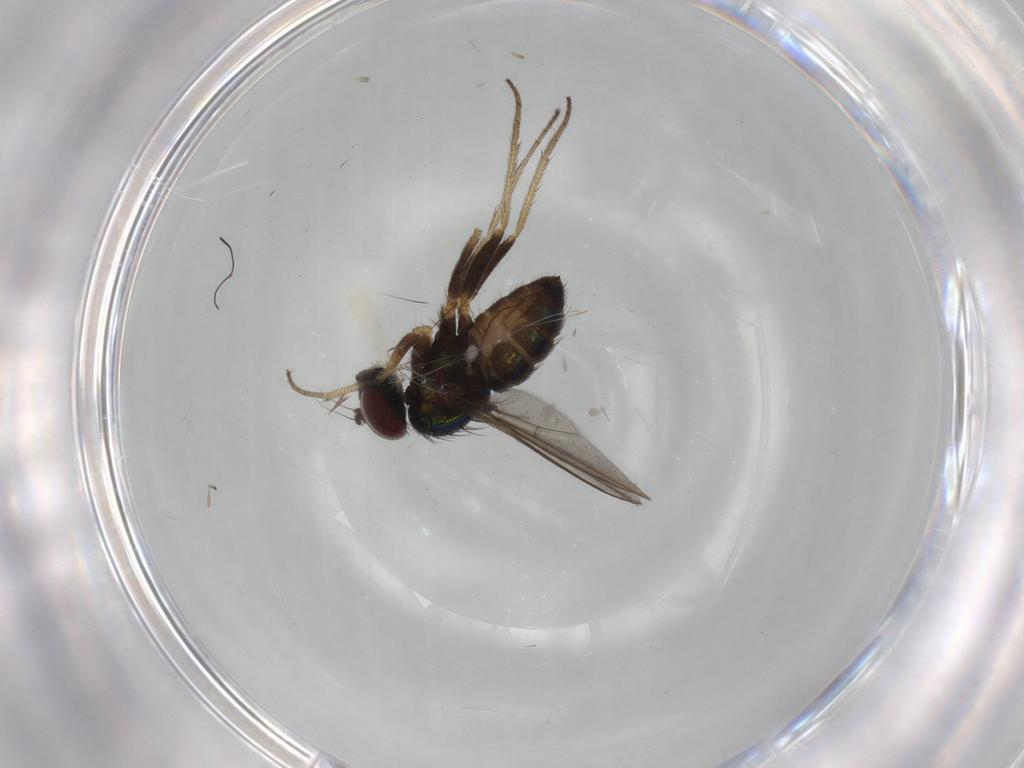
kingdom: Animalia
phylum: Arthropoda
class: Insecta
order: Diptera
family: Dolichopodidae
